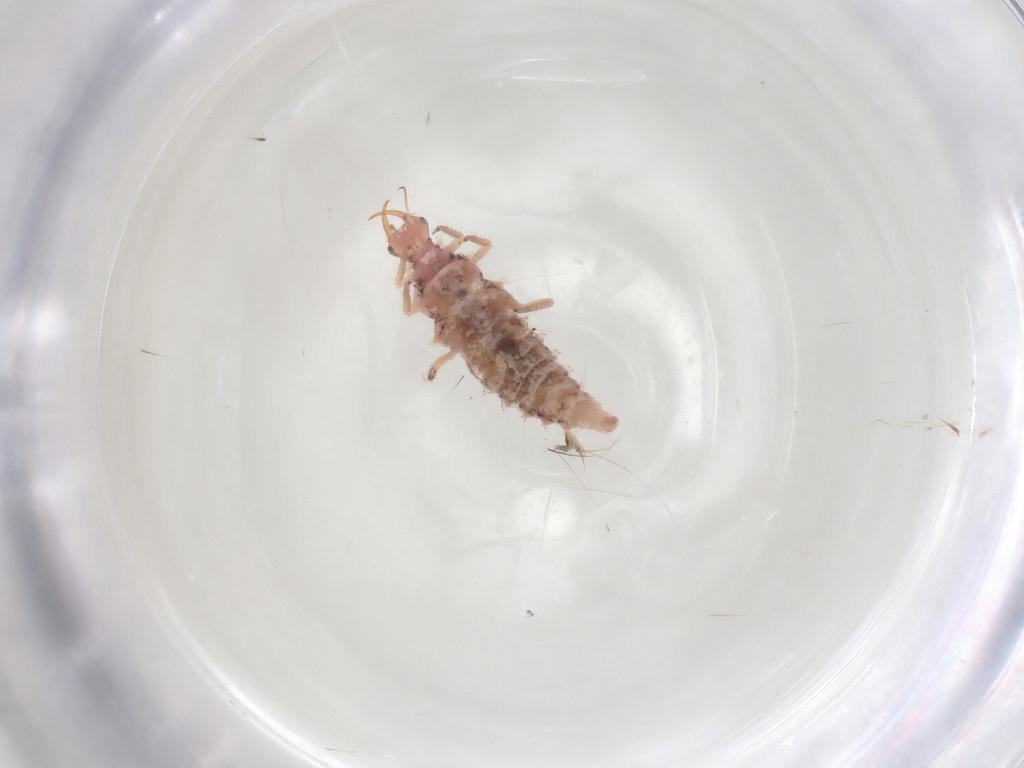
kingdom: Animalia
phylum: Arthropoda
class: Insecta
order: Neuroptera
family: Chrysopidae
